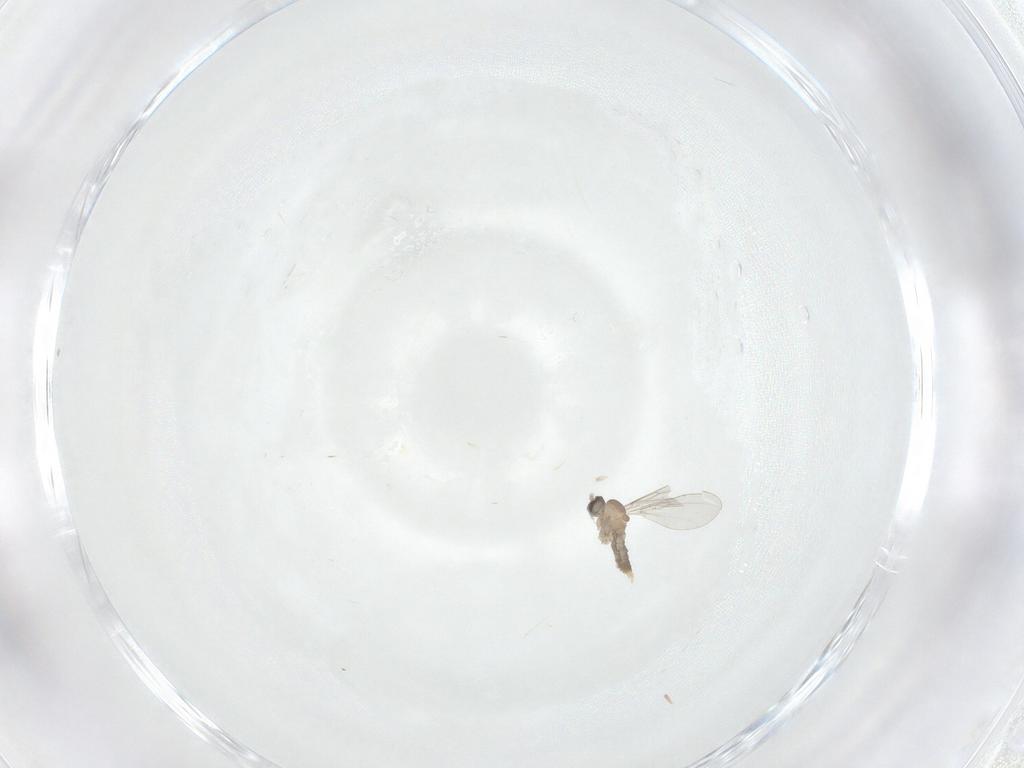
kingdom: Animalia
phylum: Arthropoda
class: Insecta
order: Diptera
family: Cecidomyiidae
